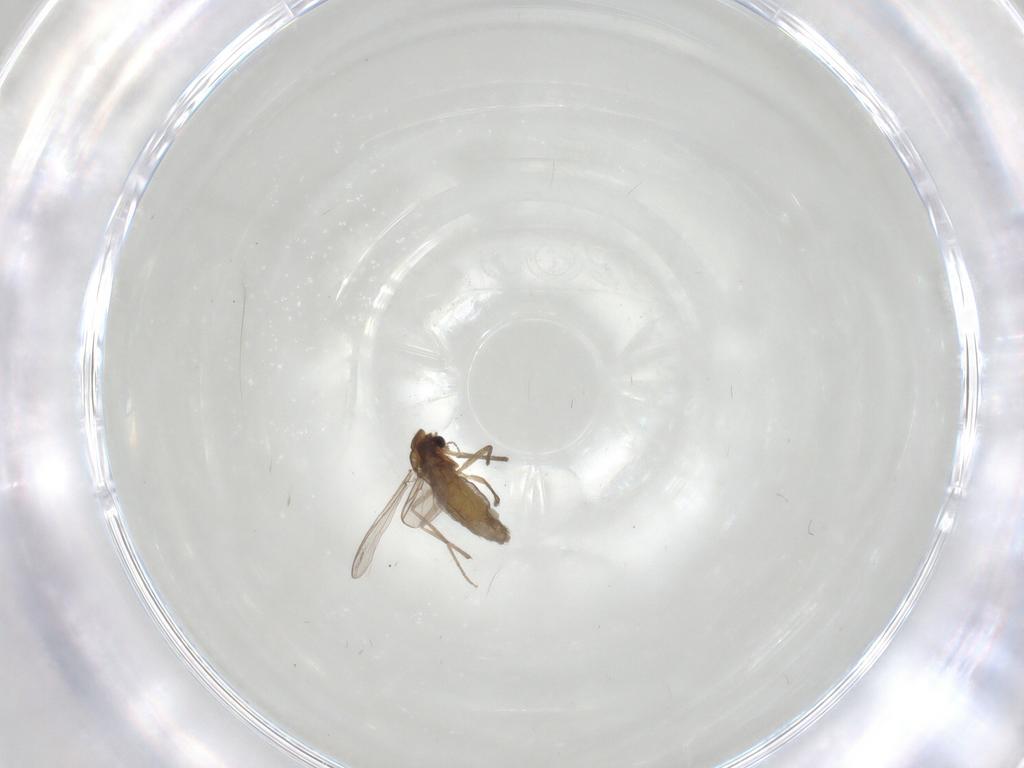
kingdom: Animalia
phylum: Arthropoda
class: Insecta
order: Diptera
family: Chironomidae
